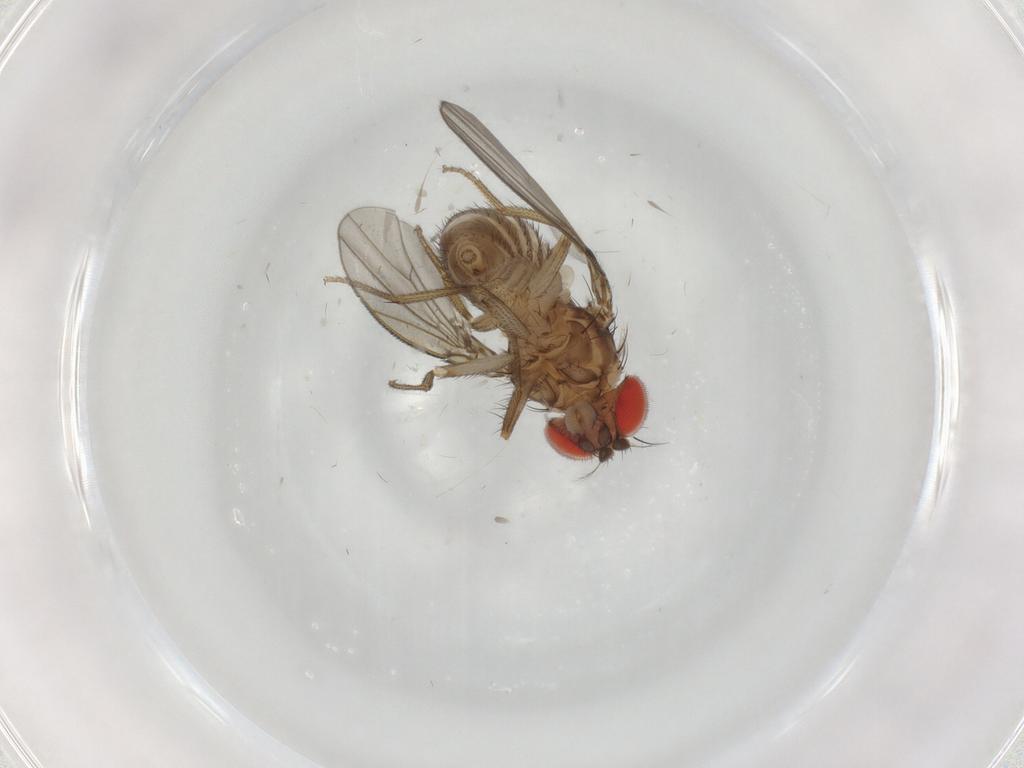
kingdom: Animalia
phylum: Arthropoda
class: Insecta
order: Diptera
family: Drosophilidae
